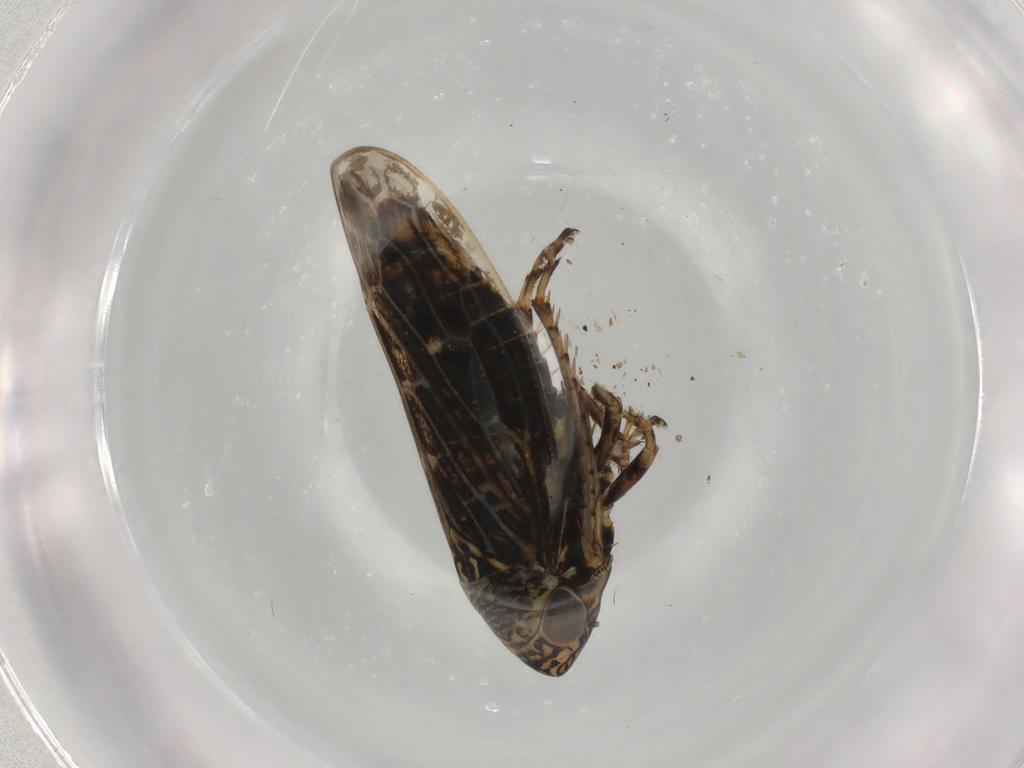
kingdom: Animalia
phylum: Arthropoda
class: Insecta
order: Hemiptera
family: Cicadellidae
